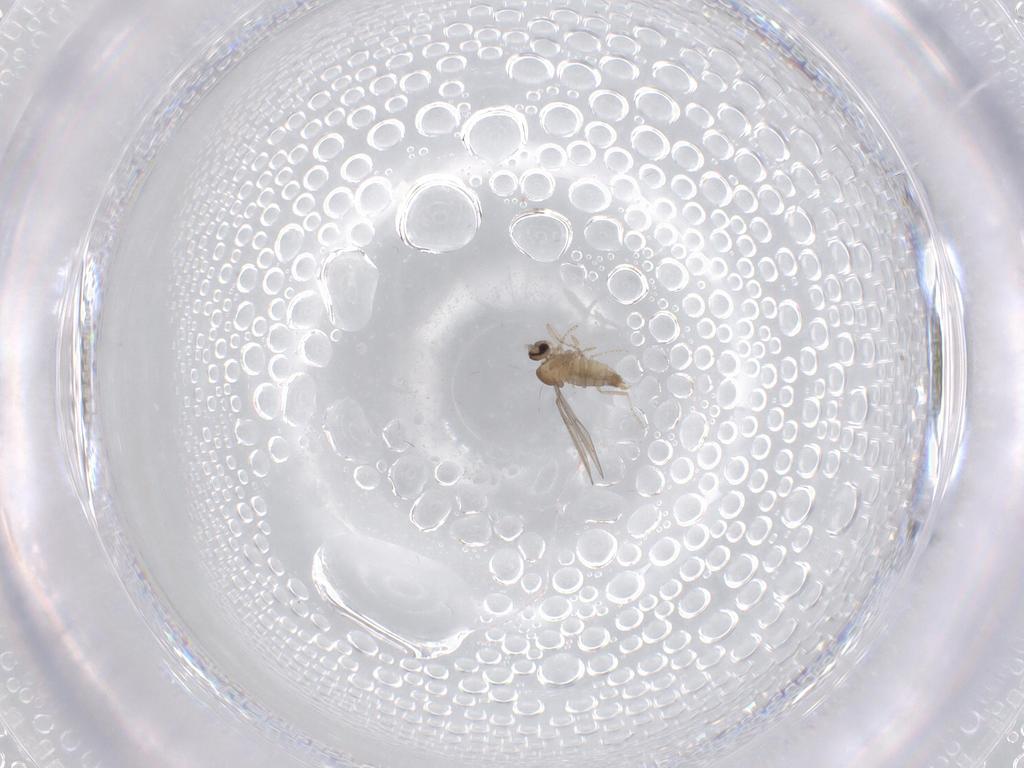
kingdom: Animalia
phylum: Arthropoda
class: Insecta
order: Diptera
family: Cecidomyiidae
